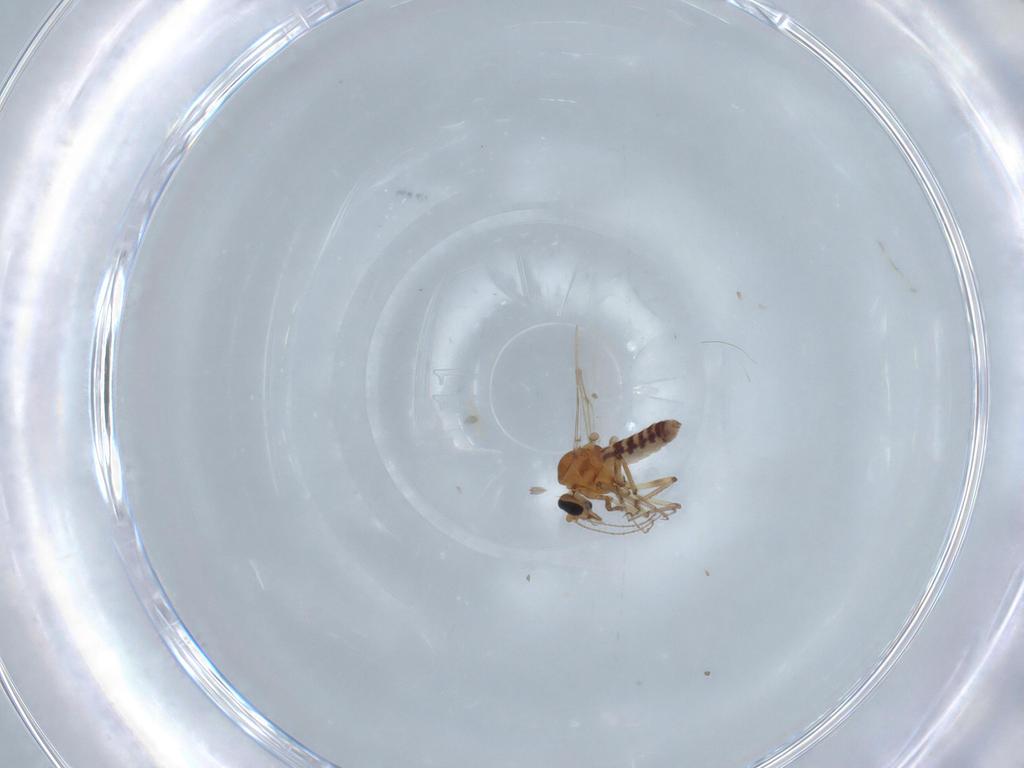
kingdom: Animalia
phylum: Arthropoda
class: Insecta
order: Diptera
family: Ceratopogonidae
